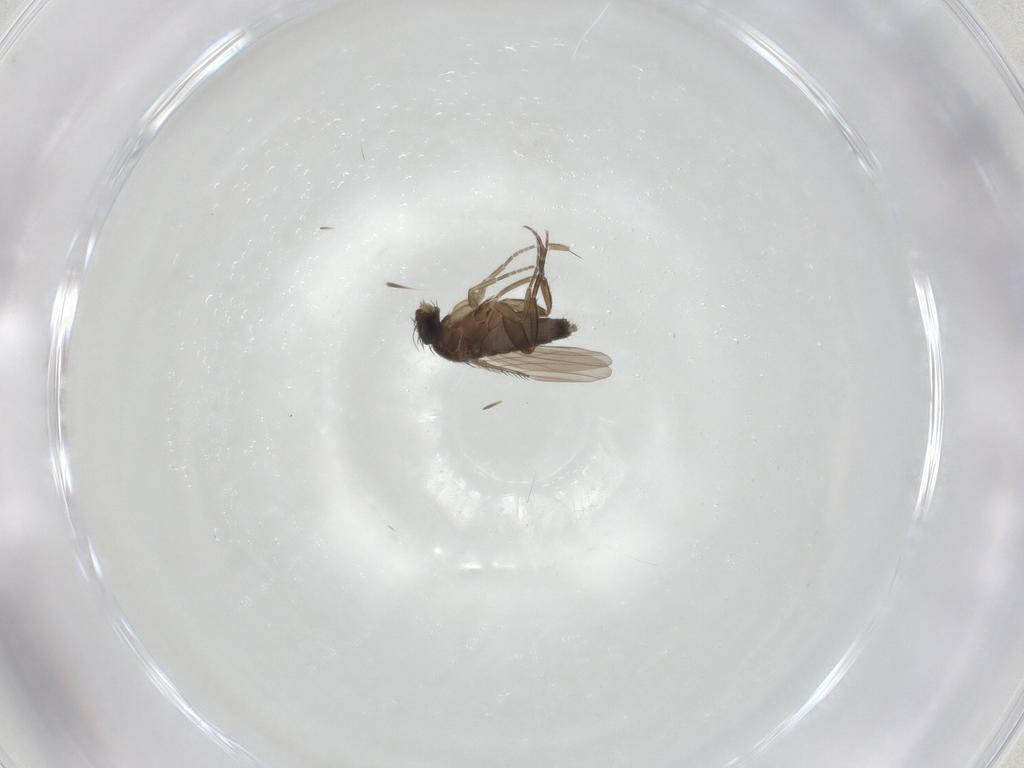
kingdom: Animalia
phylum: Arthropoda
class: Insecta
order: Diptera
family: Phoridae
